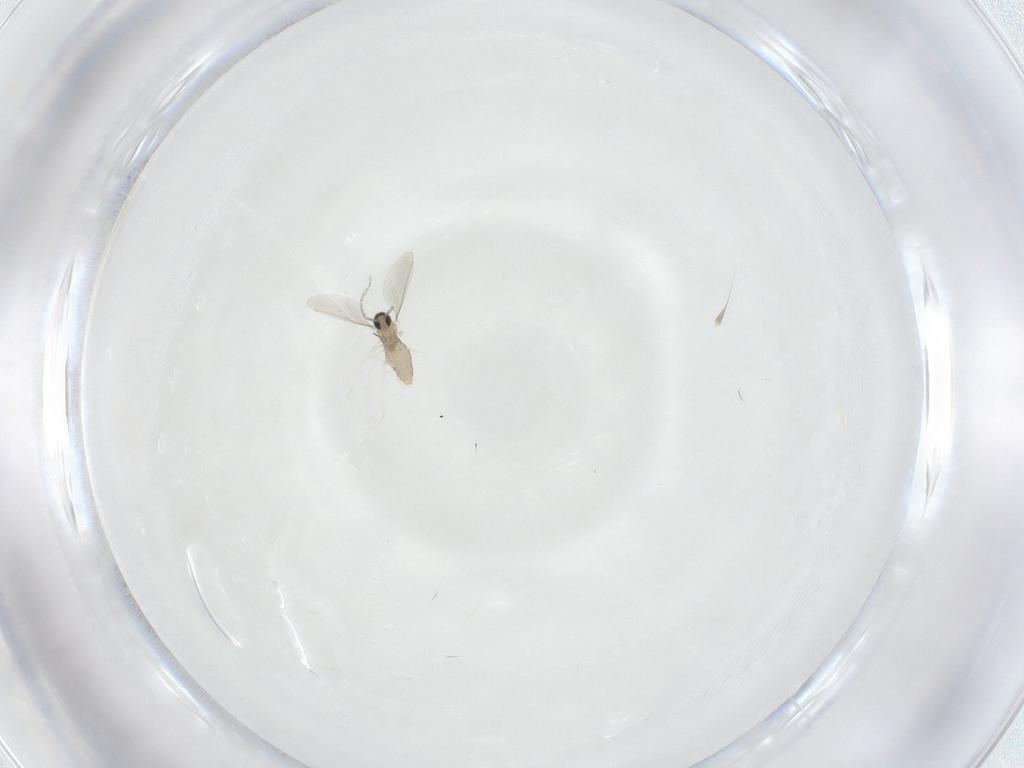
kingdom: Animalia
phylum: Arthropoda
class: Insecta
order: Diptera
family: Cecidomyiidae
